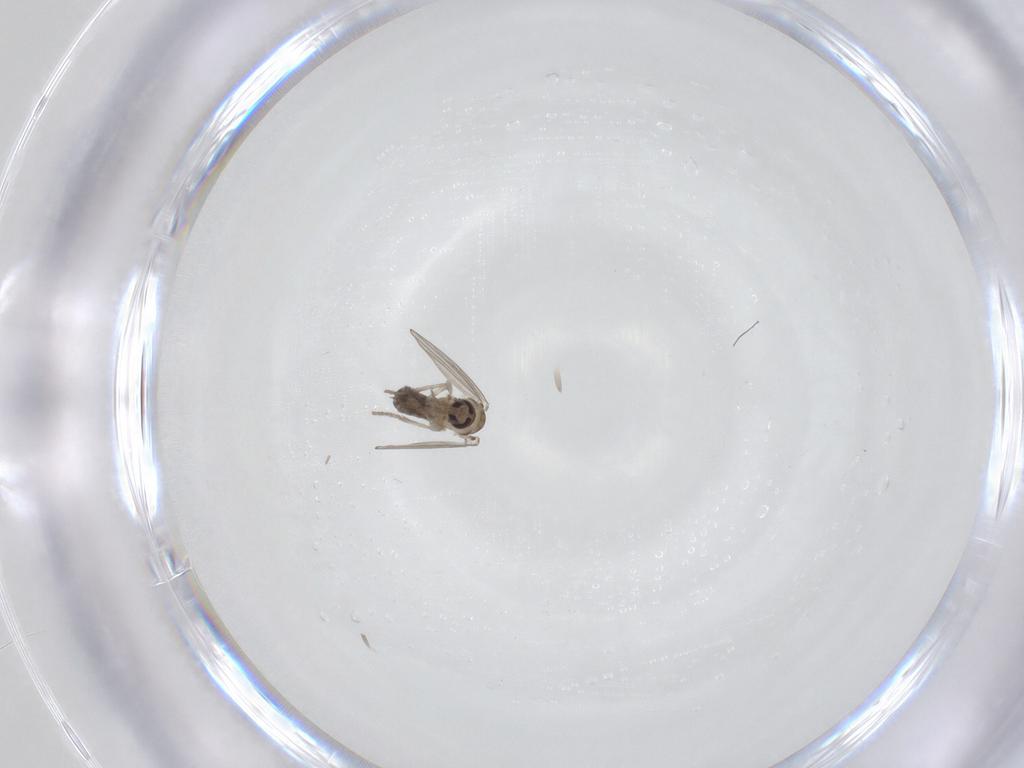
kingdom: Animalia
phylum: Arthropoda
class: Insecta
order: Diptera
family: Psychodidae
